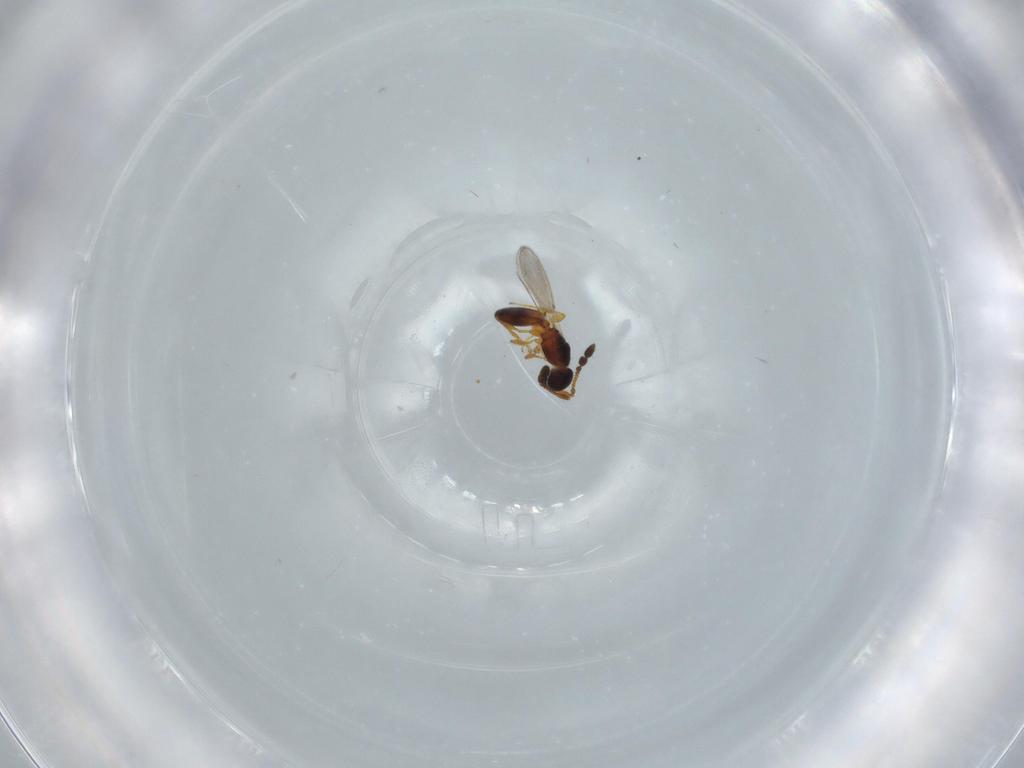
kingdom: Animalia
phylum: Arthropoda
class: Insecta
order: Hymenoptera
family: Diapriidae
